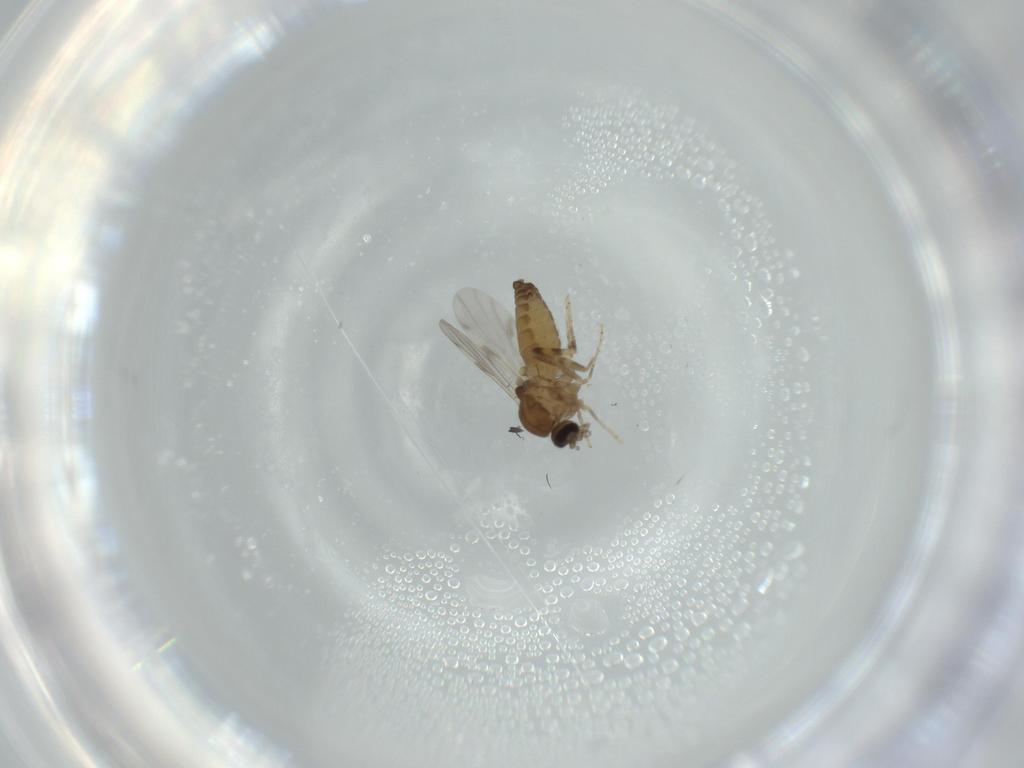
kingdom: Animalia
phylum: Arthropoda
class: Insecta
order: Diptera
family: Ceratopogonidae
